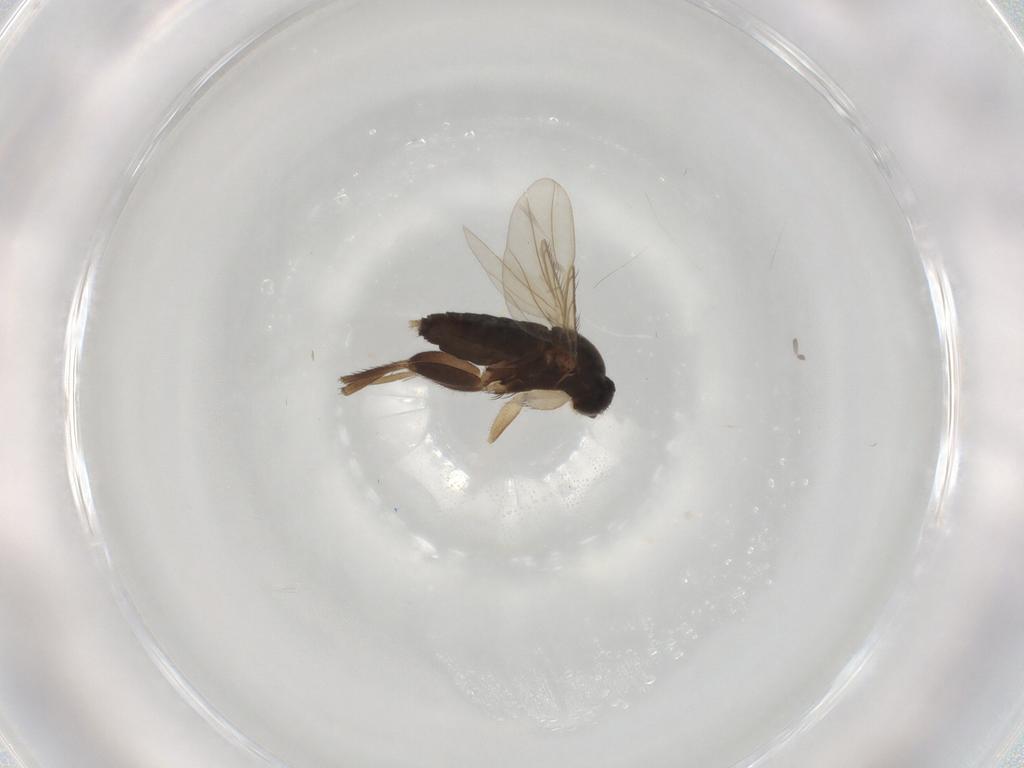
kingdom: Animalia
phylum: Arthropoda
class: Insecta
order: Diptera
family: Phoridae
